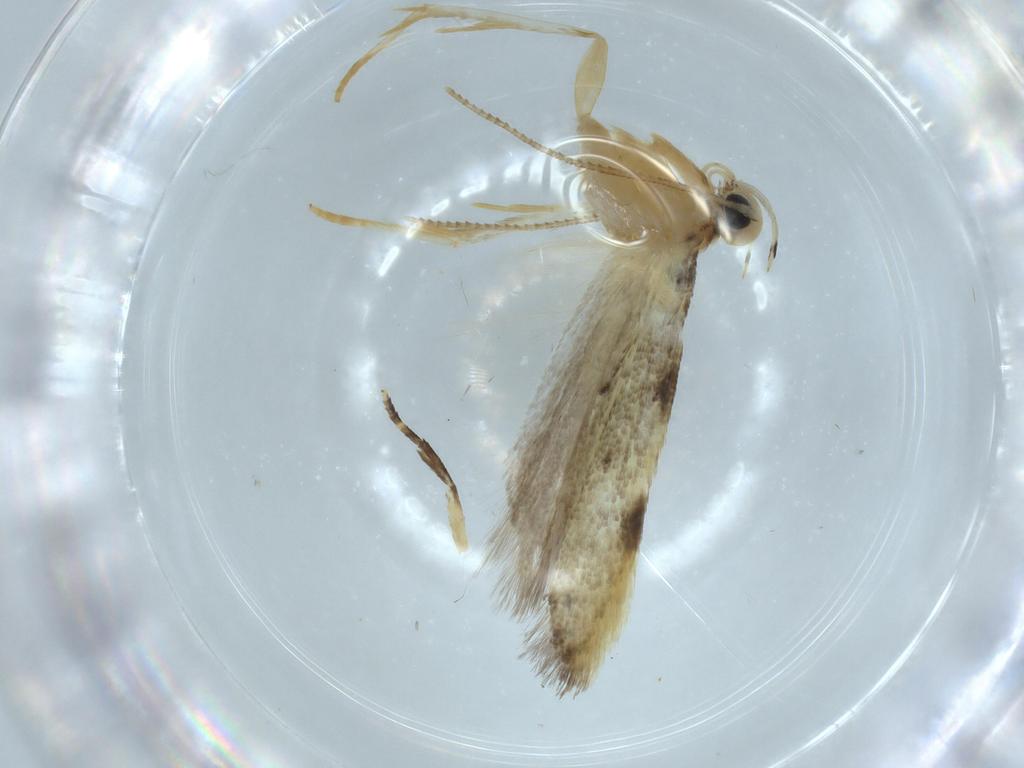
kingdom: Animalia
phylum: Arthropoda
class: Insecta
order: Lepidoptera
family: Autostichidae
